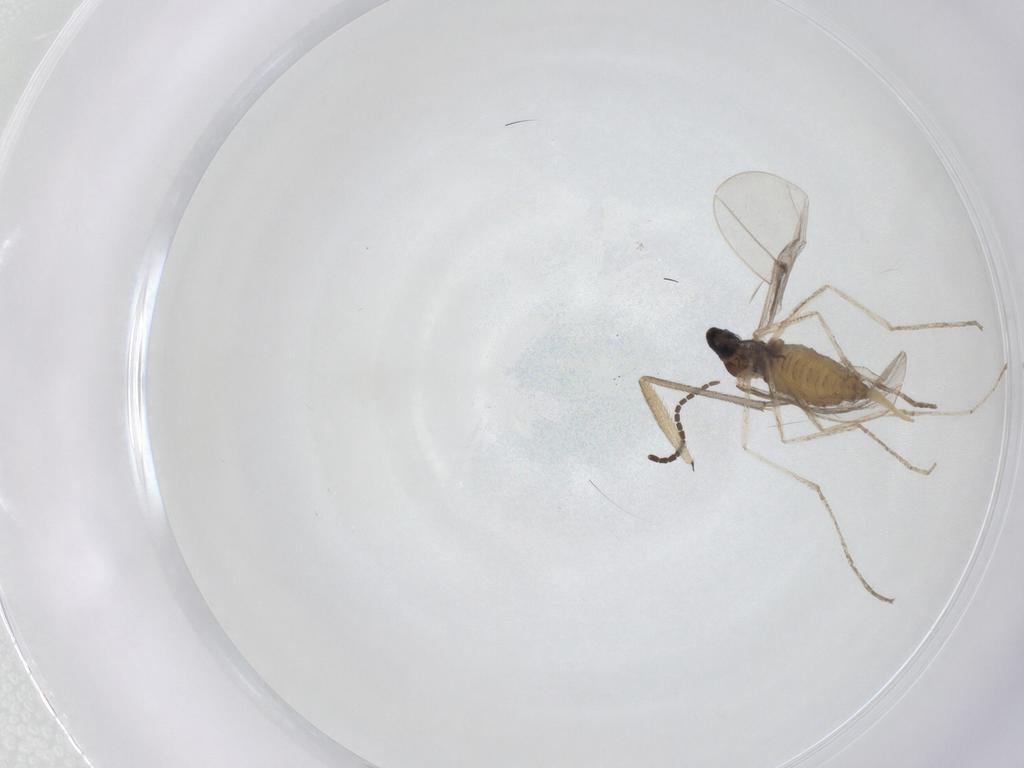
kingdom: Animalia
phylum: Arthropoda
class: Insecta
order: Diptera
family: Sciaridae
